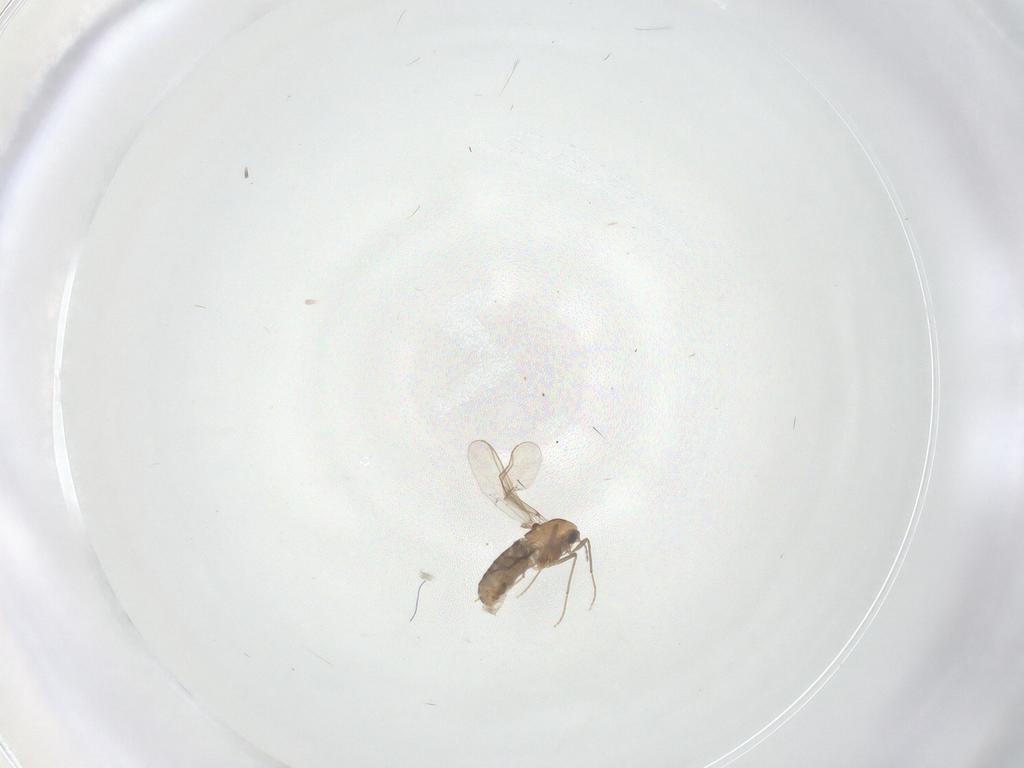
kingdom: Animalia
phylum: Arthropoda
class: Insecta
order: Diptera
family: Chironomidae
